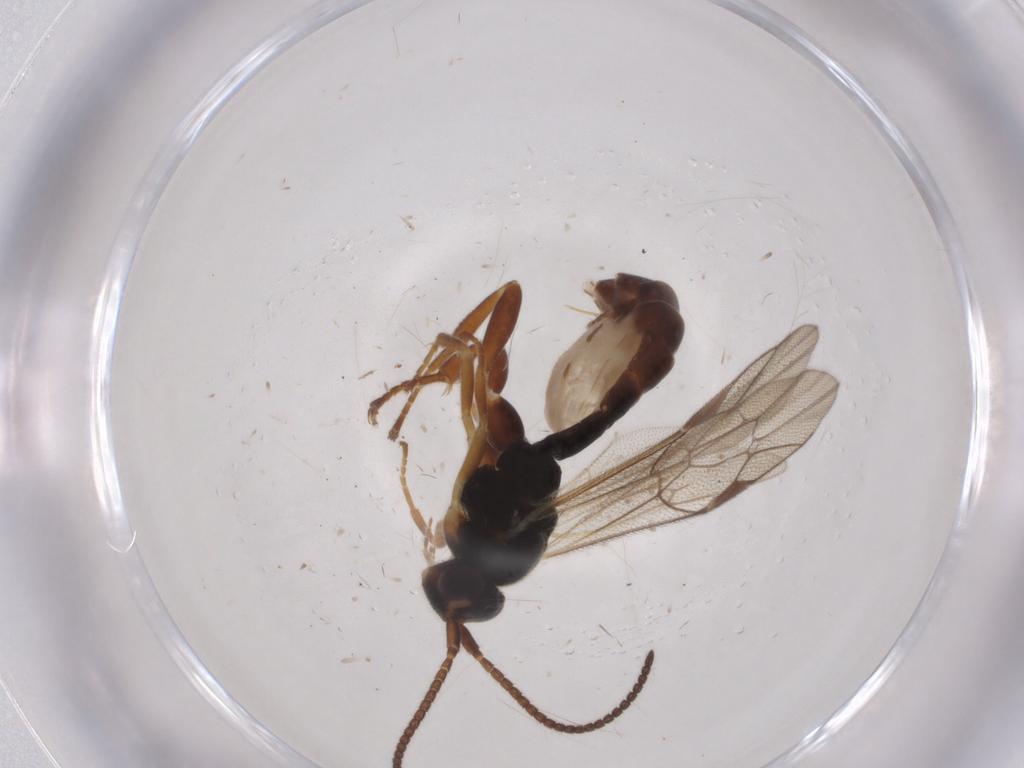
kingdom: Animalia
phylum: Arthropoda
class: Insecta
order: Hymenoptera
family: Ichneumonidae
